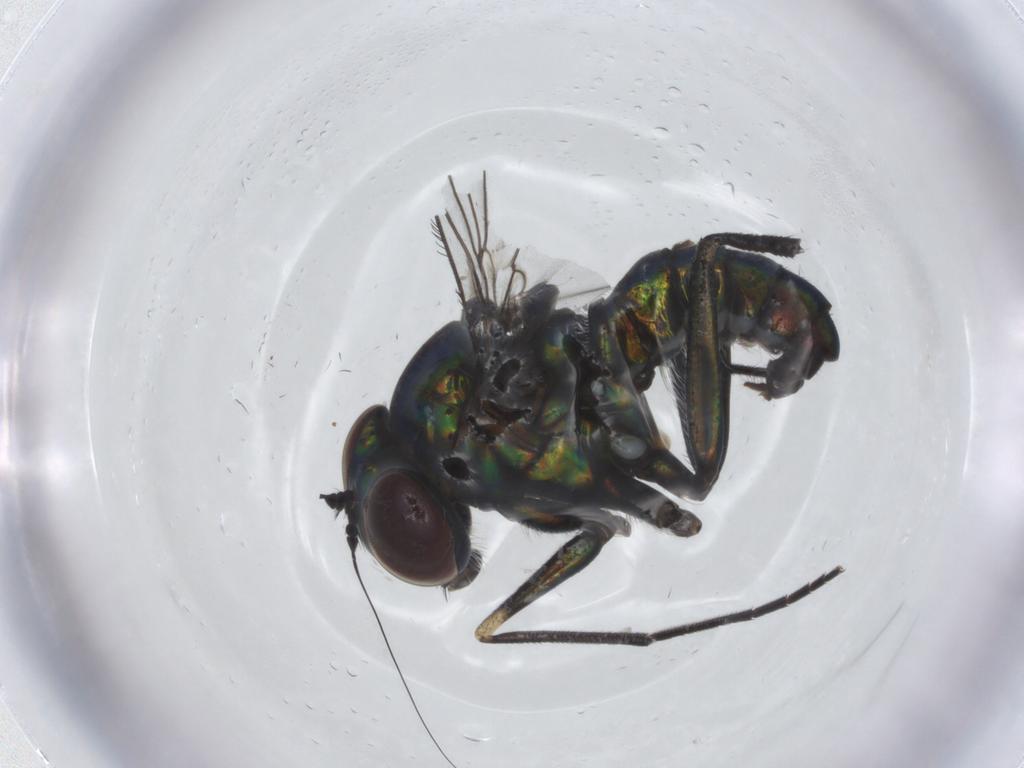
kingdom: Animalia
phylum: Arthropoda
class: Insecta
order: Diptera
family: Dolichopodidae
